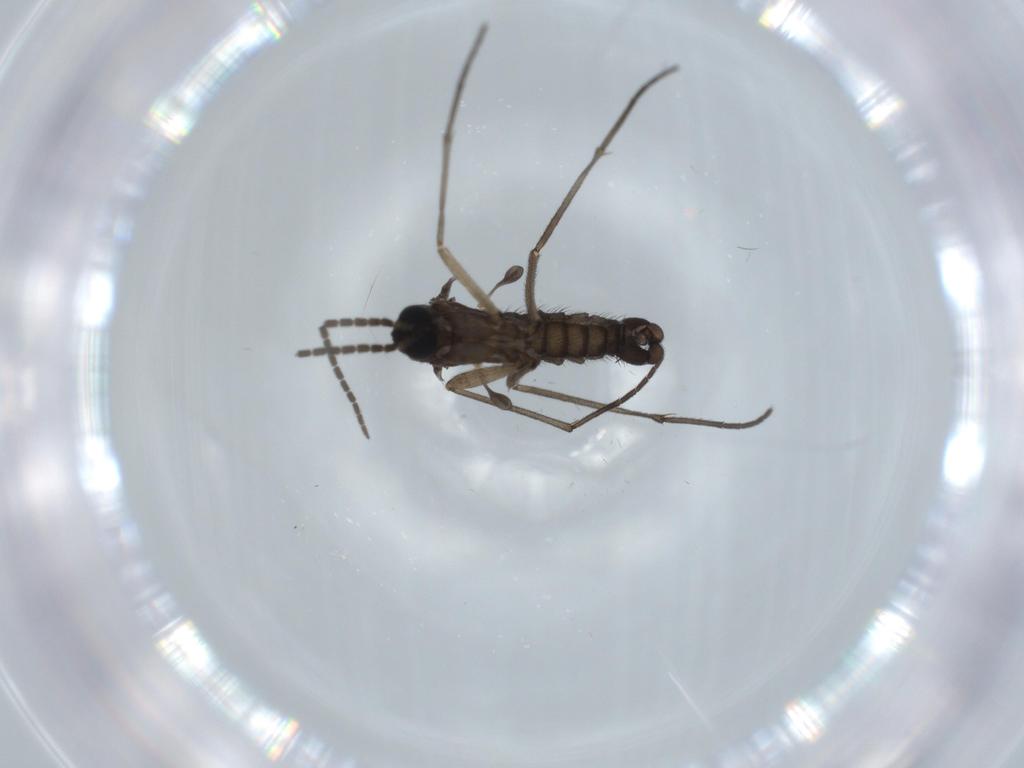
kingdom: Animalia
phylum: Arthropoda
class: Insecta
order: Diptera
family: Sciaridae
